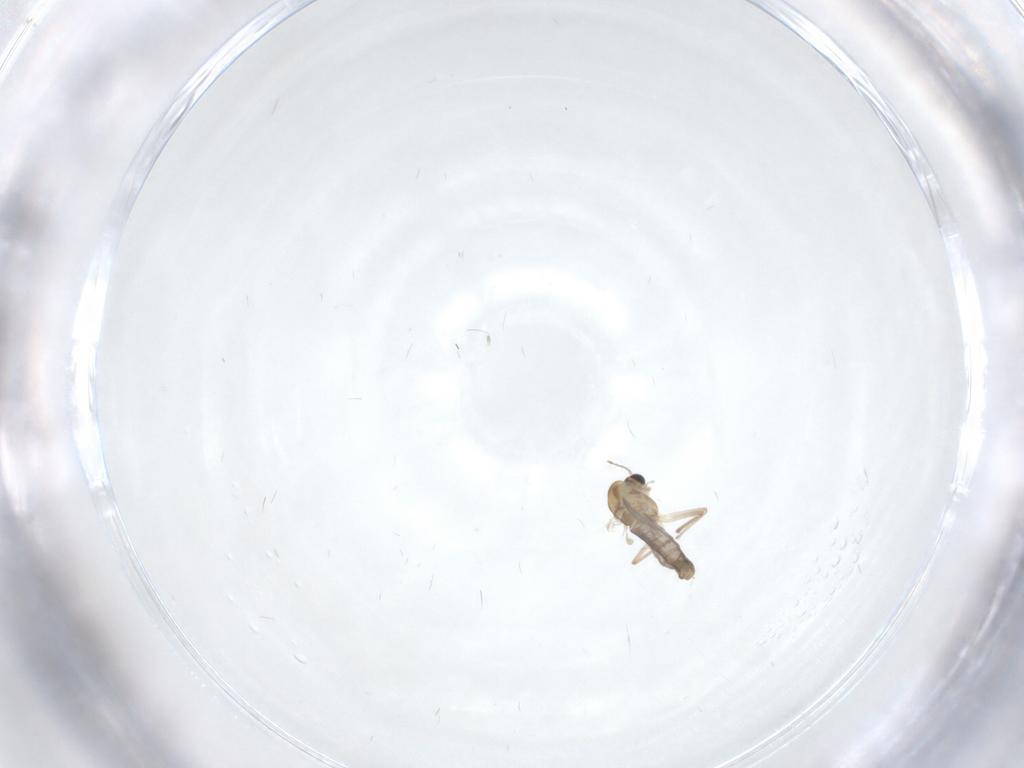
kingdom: Animalia
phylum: Arthropoda
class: Insecta
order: Diptera
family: Chironomidae
